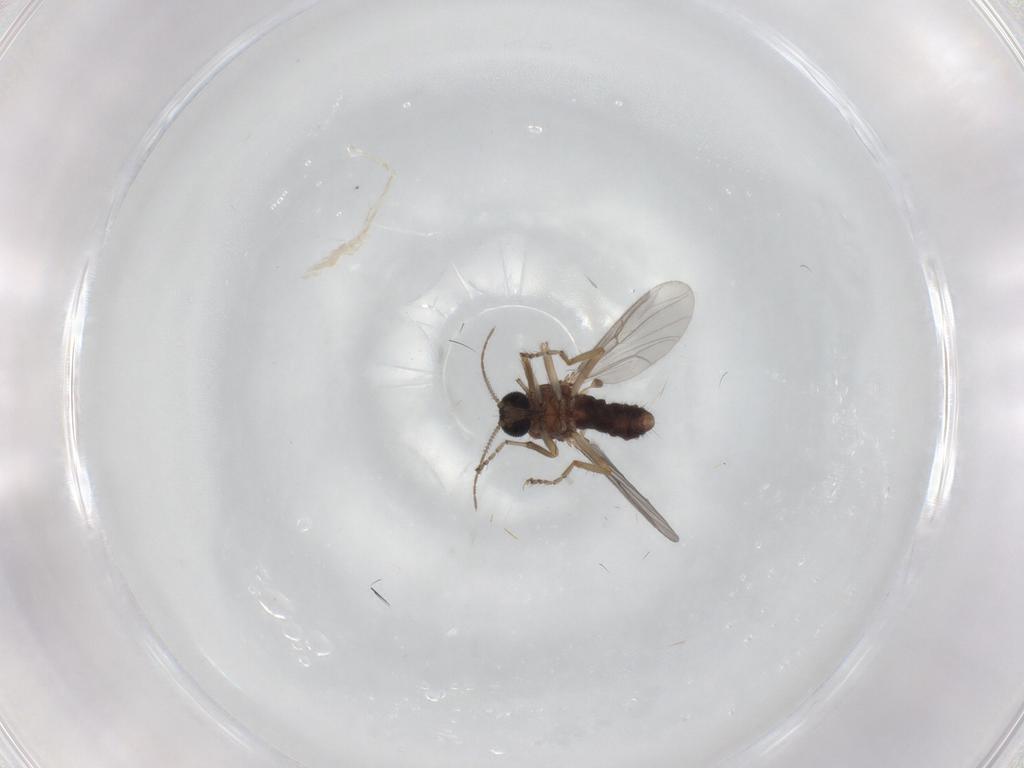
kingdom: Animalia
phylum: Arthropoda
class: Insecta
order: Diptera
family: Ceratopogonidae
